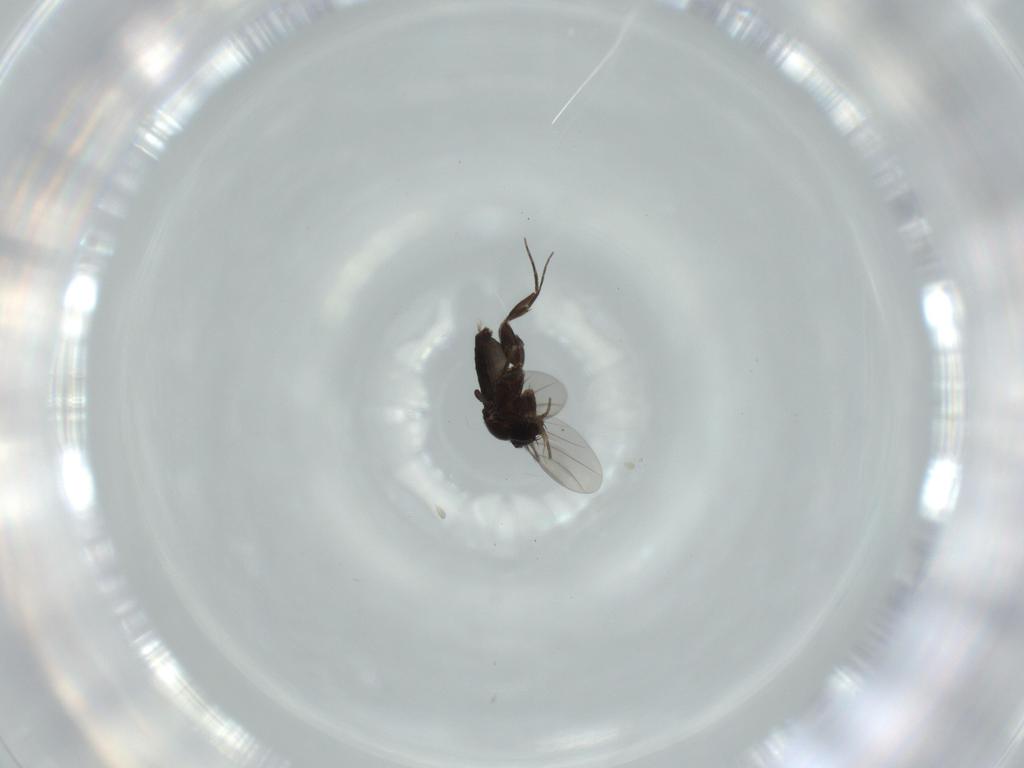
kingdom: Animalia
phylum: Arthropoda
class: Insecta
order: Diptera
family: Phoridae
